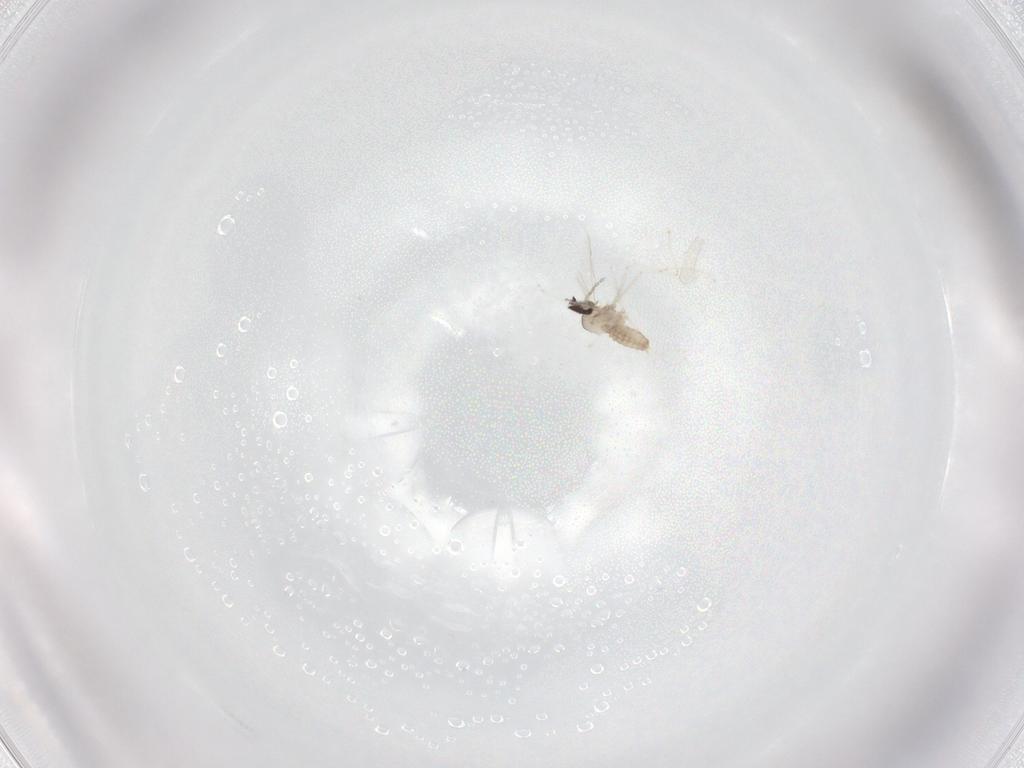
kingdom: Animalia
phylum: Arthropoda
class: Insecta
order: Diptera
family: Cecidomyiidae
